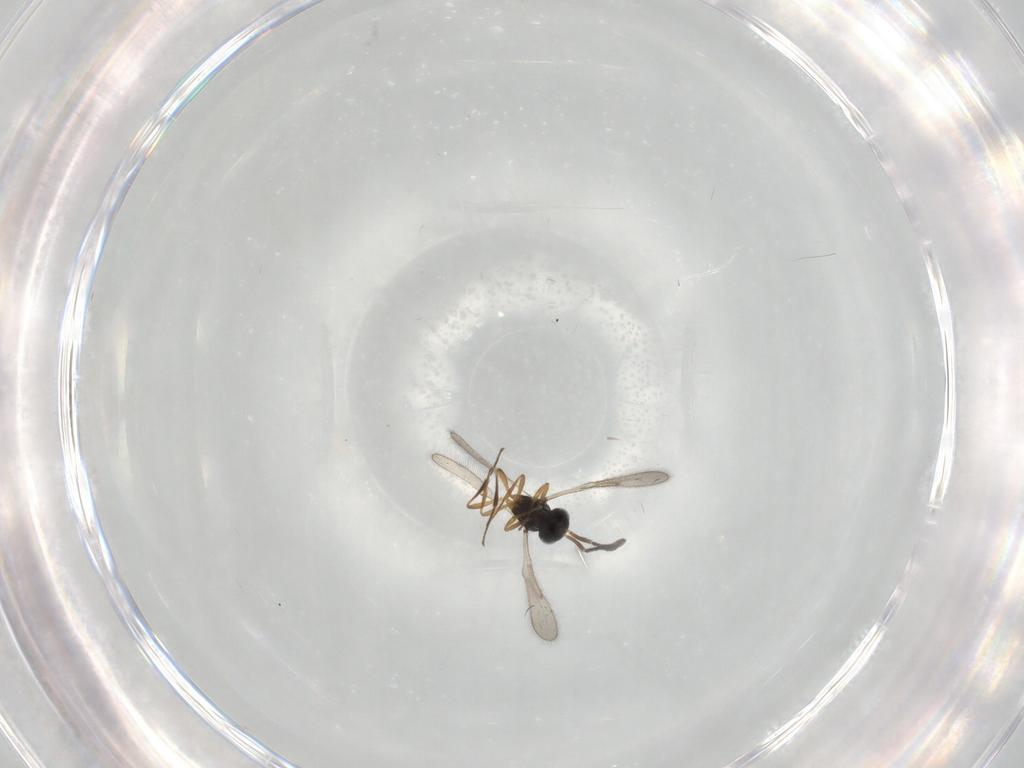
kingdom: Animalia
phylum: Arthropoda
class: Insecta
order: Hymenoptera
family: Scelionidae
